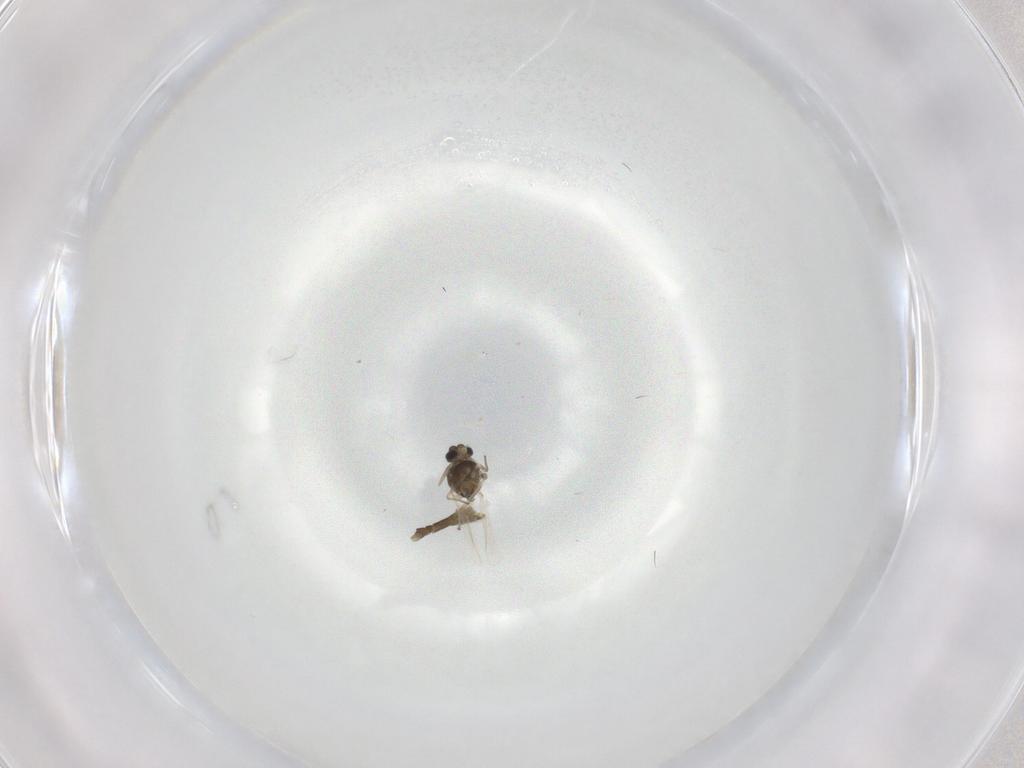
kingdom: Animalia
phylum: Arthropoda
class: Insecta
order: Diptera
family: Chironomidae
